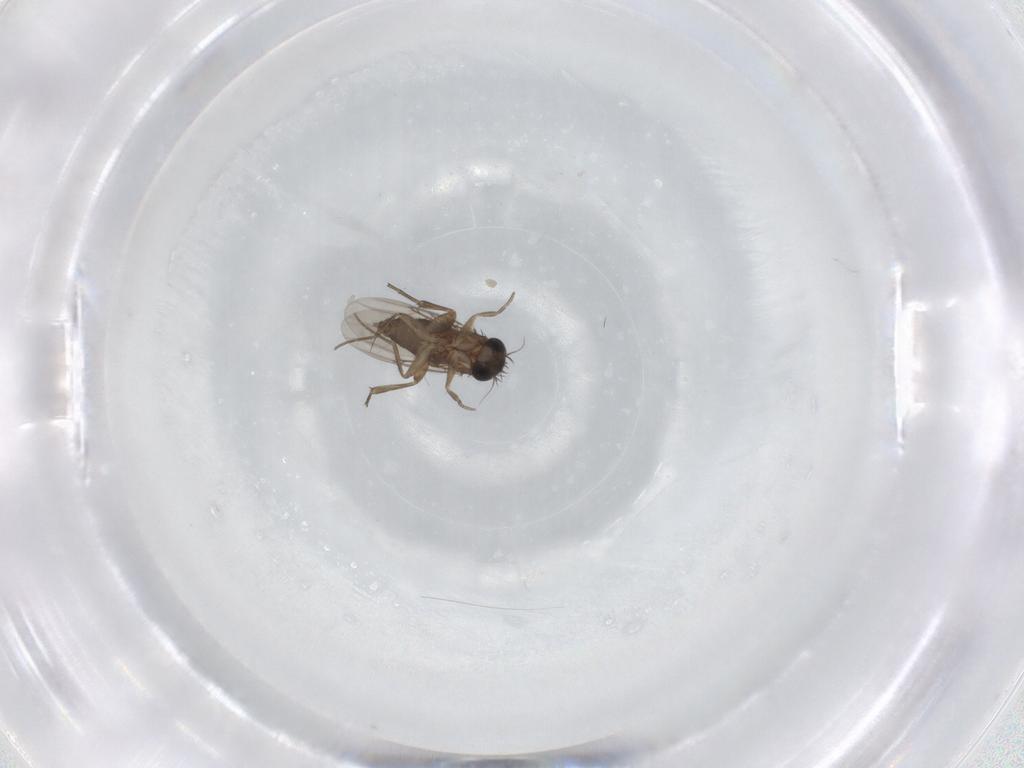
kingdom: Animalia
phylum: Arthropoda
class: Insecta
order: Diptera
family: Phoridae
